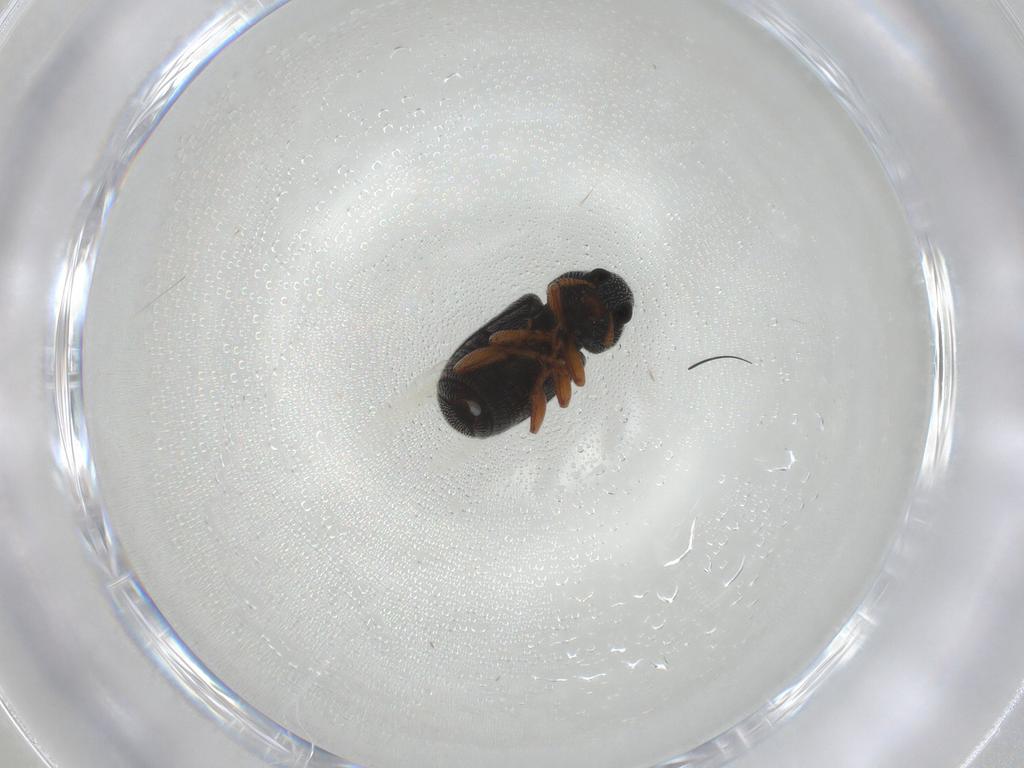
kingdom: Animalia
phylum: Arthropoda
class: Insecta
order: Coleoptera
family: Anthribidae
